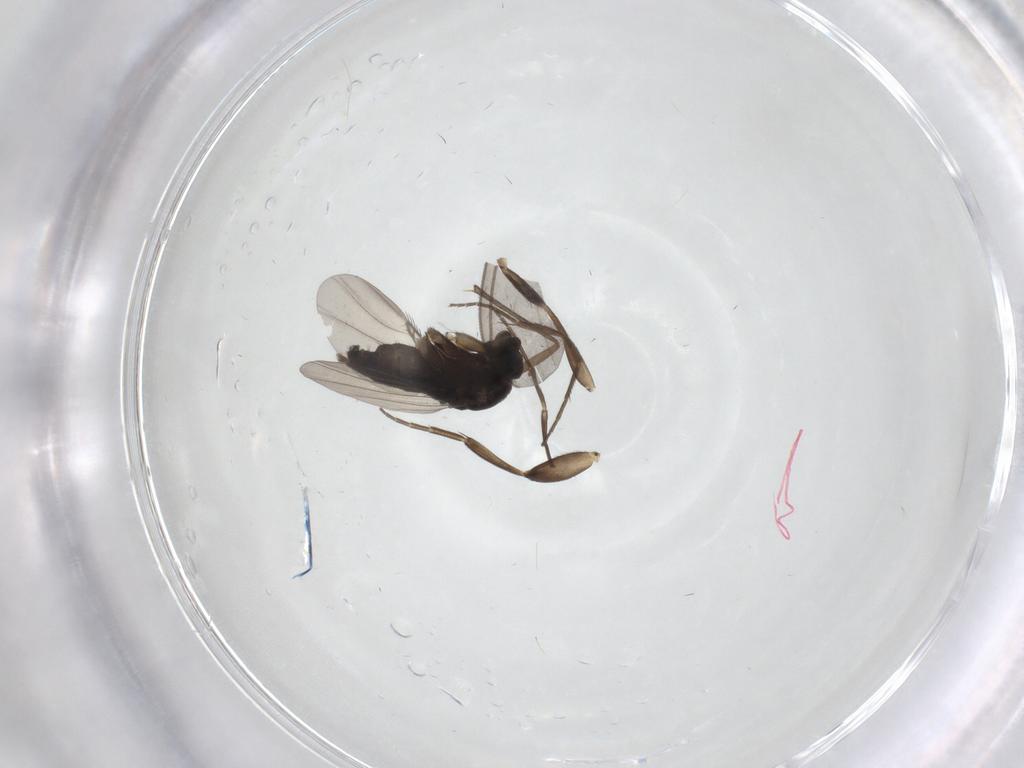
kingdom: Animalia
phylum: Arthropoda
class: Insecta
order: Diptera
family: Phoridae
